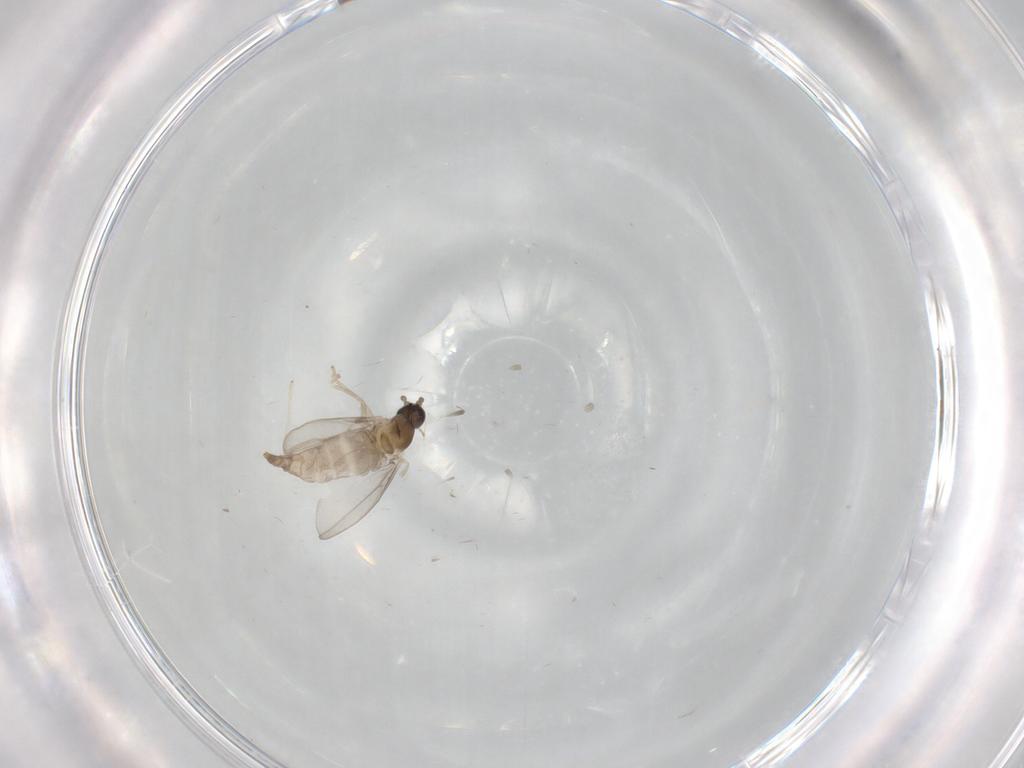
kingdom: Animalia
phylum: Arthropoda
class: Insecta
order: Diptera
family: Cecidomyiidae
